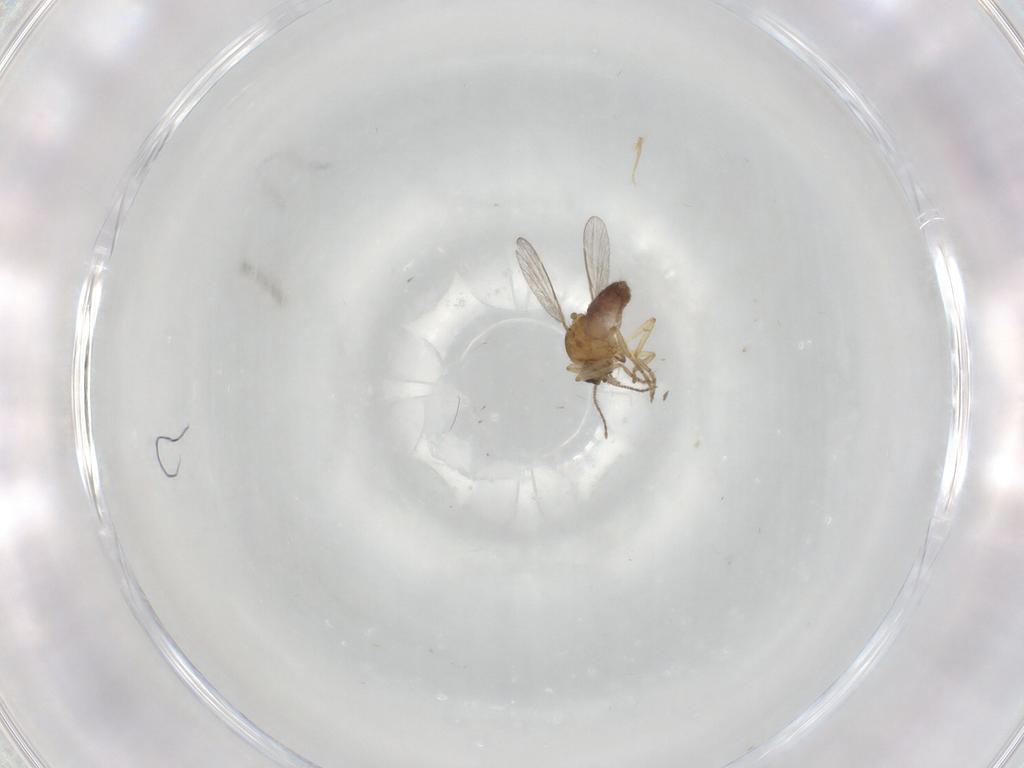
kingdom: Animalia
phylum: Arthropoda
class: Insecta
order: Diptera
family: Ceratopogonidae
